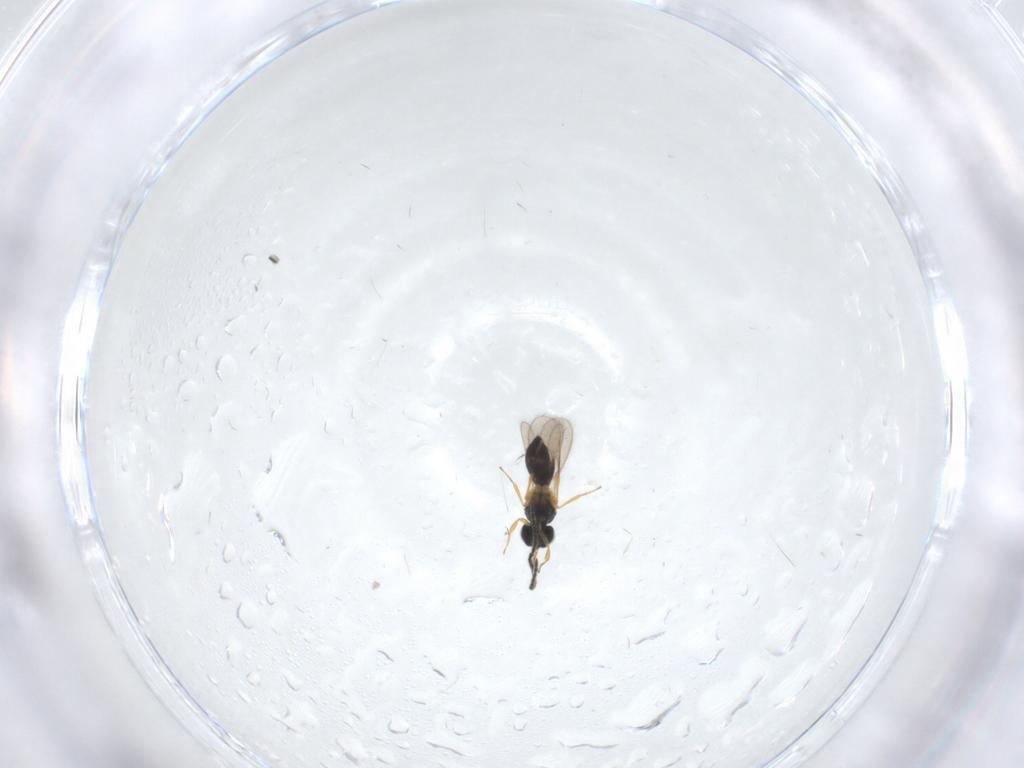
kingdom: Animalia
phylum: Arthropoda
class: Insecta
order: Hymenoptera
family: Scelionidae
